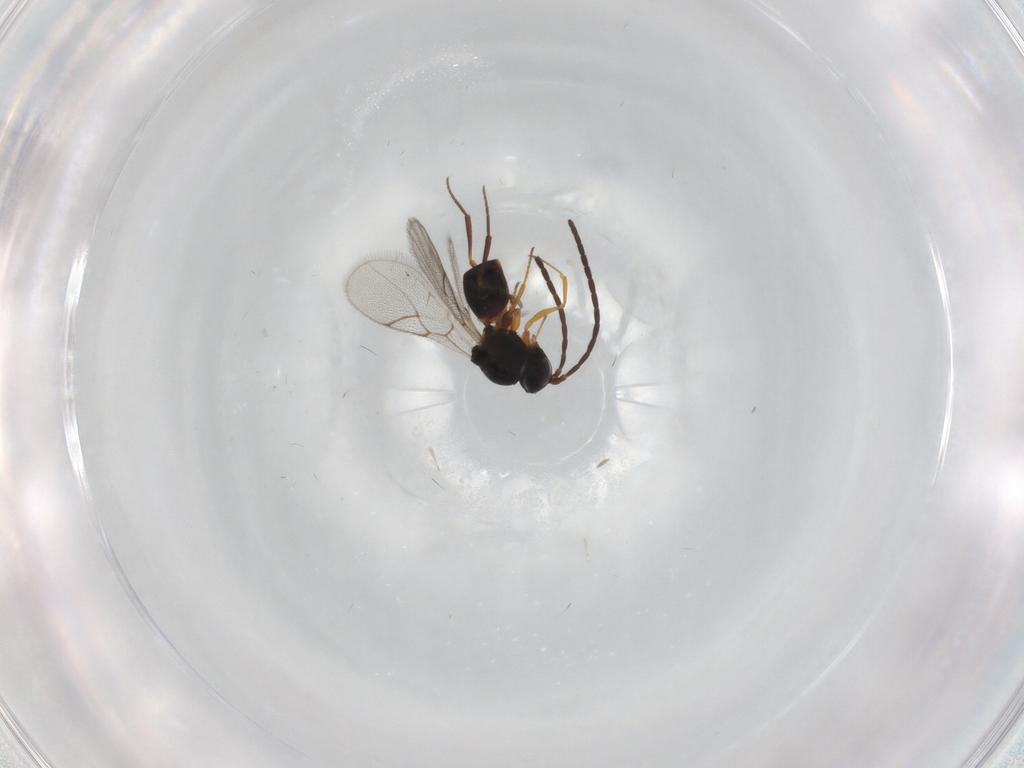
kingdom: Animalia
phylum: Arthropoda
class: Insecta
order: Hymenoptera
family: Figitidae
